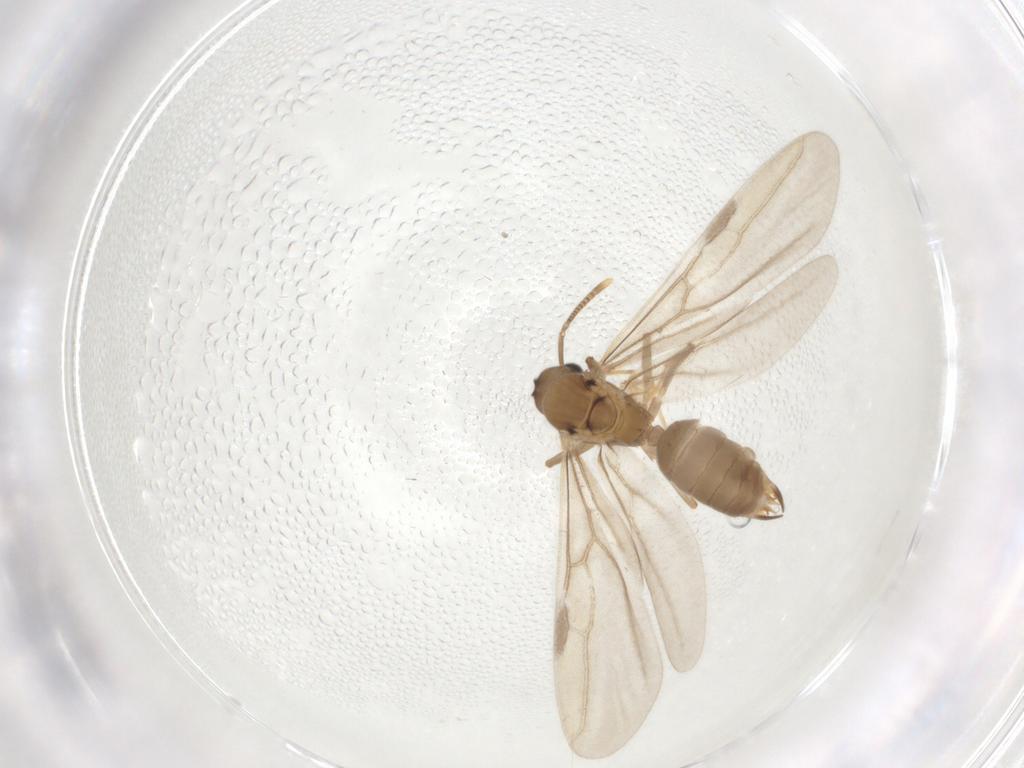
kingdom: Animalia
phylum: Arthropoda
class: Insecta
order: Hymenoptera
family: Formicidae
